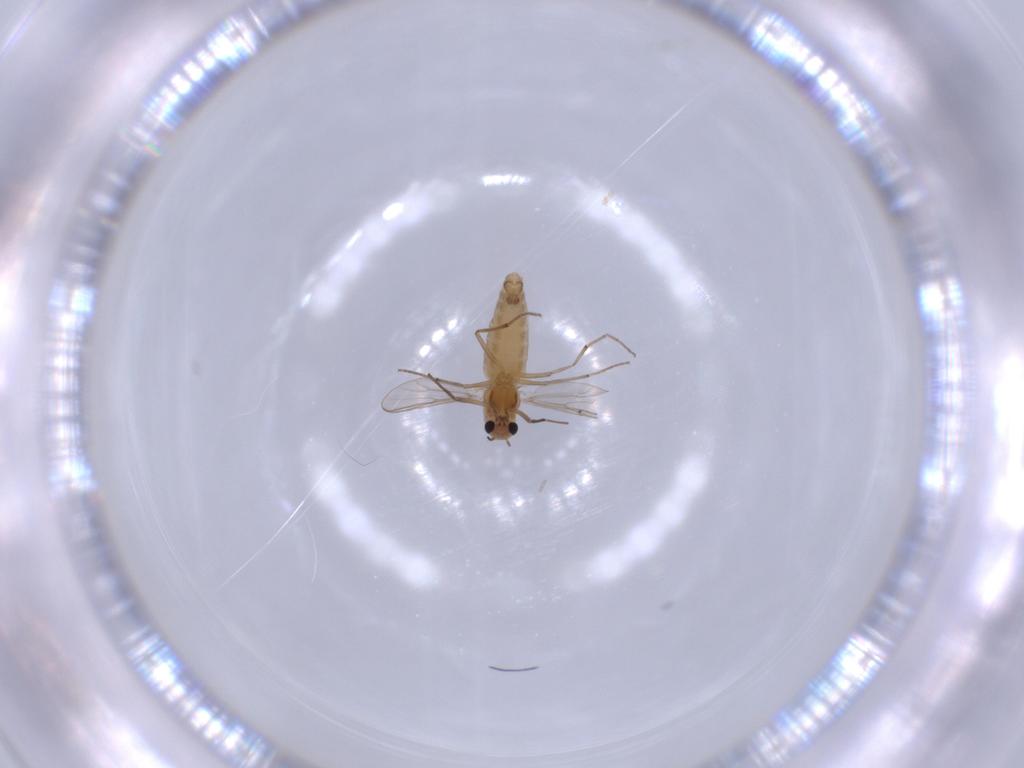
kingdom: Animalia
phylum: Arthropoda
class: Insecta
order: Diptera
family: Chironomidae
